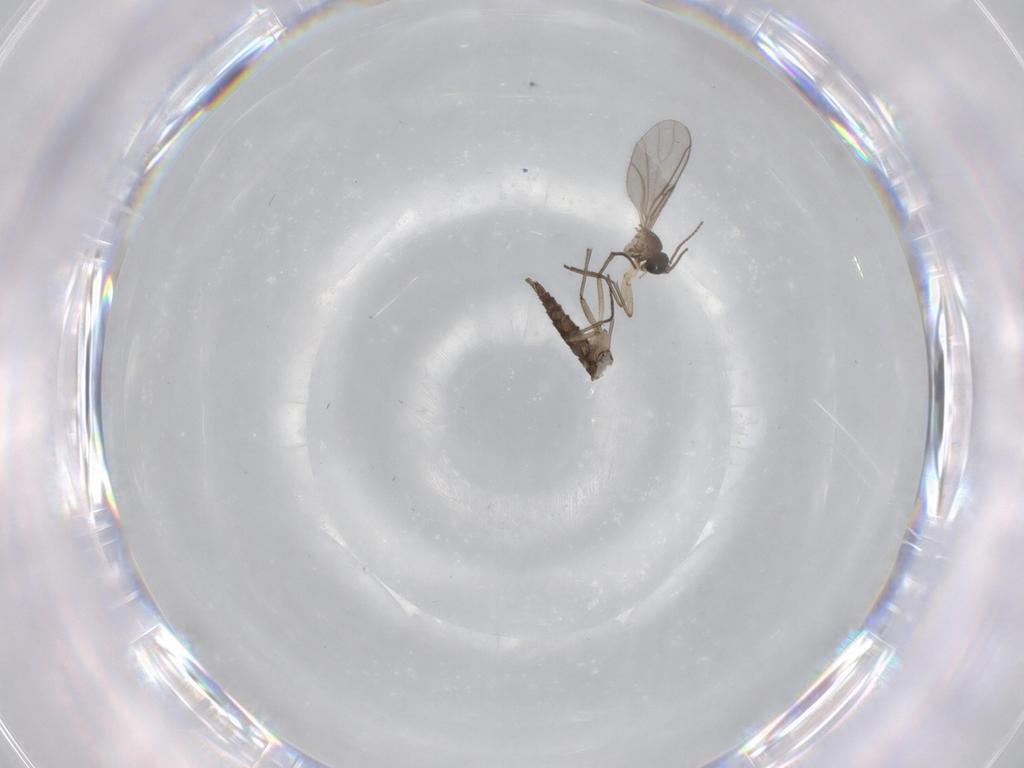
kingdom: Animalia
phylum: Arthropoda
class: Insecta
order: Diptera
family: Sciaridae
